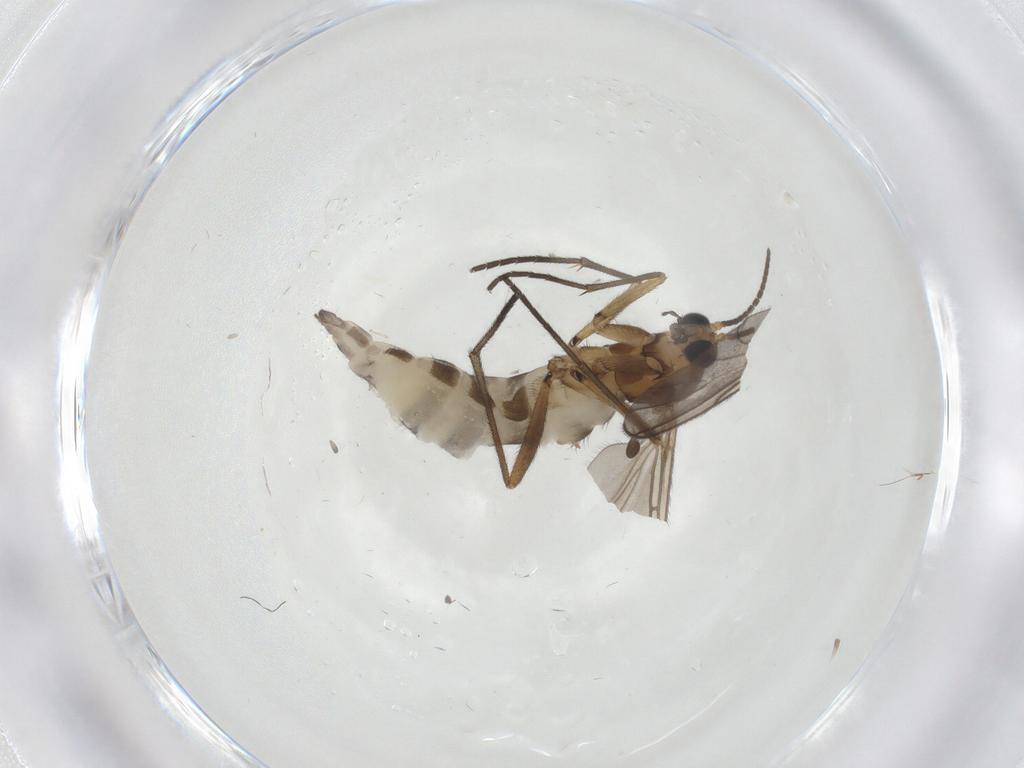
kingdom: Animalia
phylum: Arthropoda
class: Insecta
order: Diptera
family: Sciaridae
